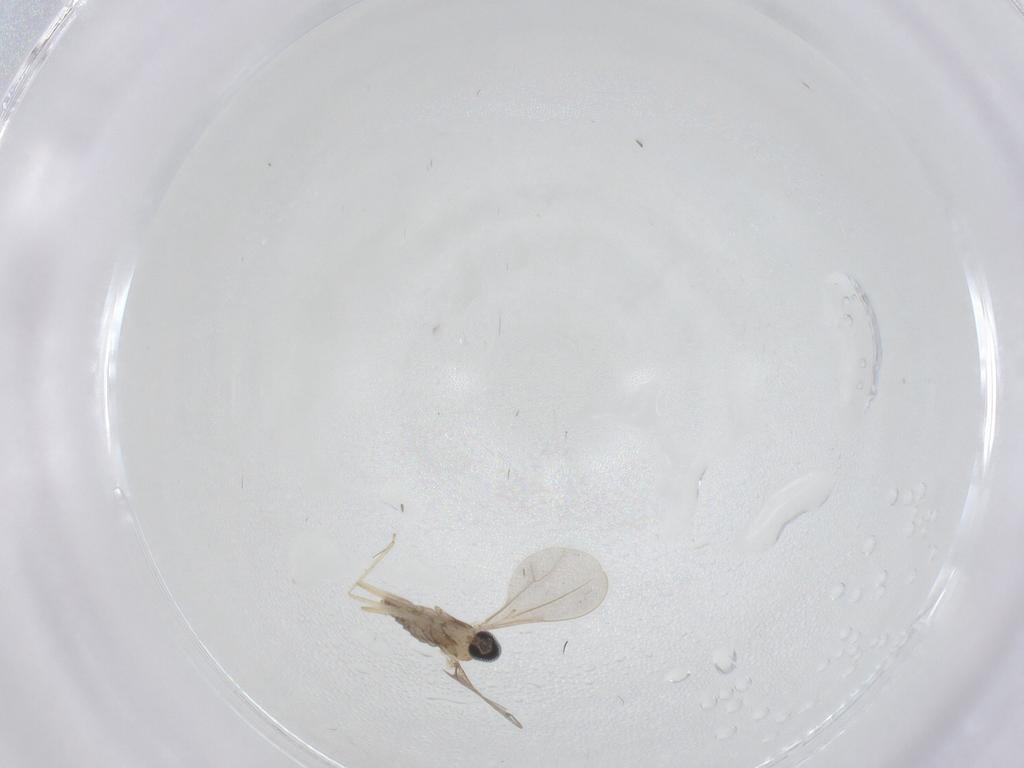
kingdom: Animalia
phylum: Arthropoda
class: Insecta
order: Diptera
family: Cecidomyiidae
